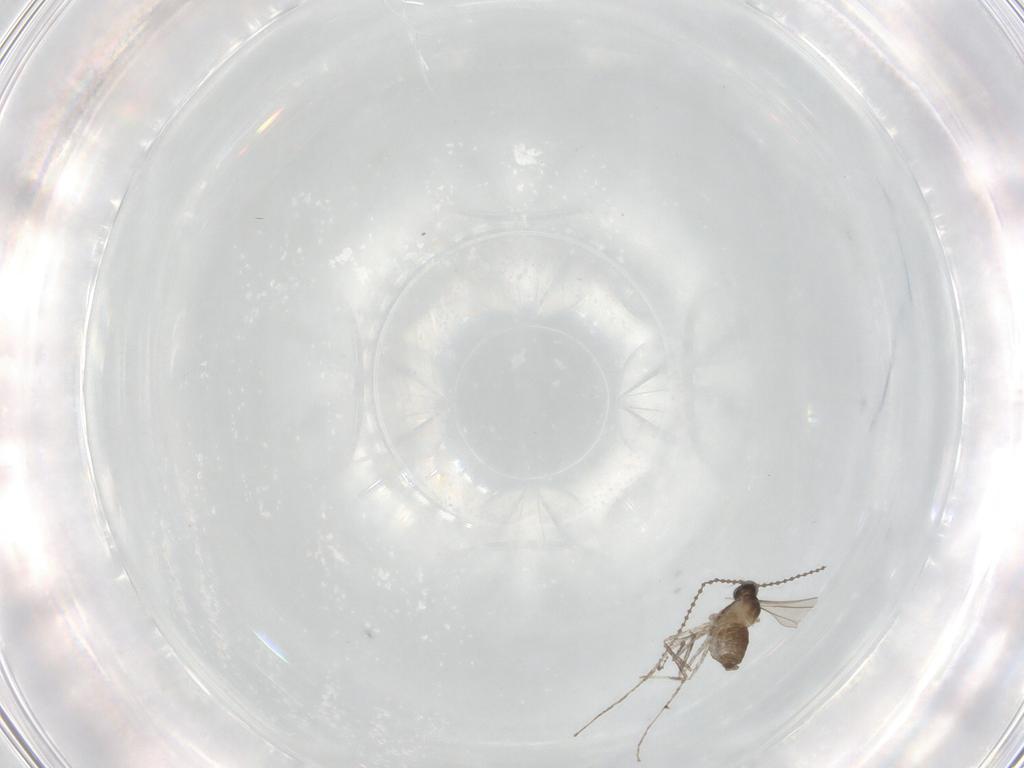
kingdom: Animalia
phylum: Arthropoda
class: Insecta
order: Diptera
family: Cecidomyiidae
